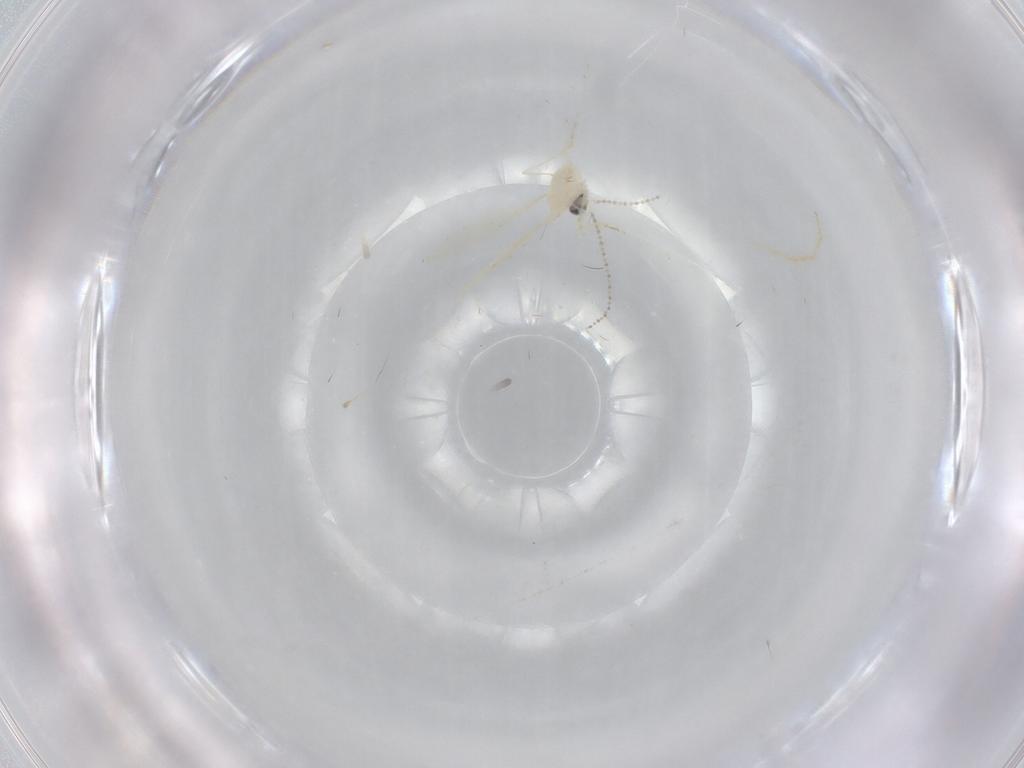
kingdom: Animalia
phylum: Arthropoda
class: Insecta
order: Diptera
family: Cecidomyiidae
